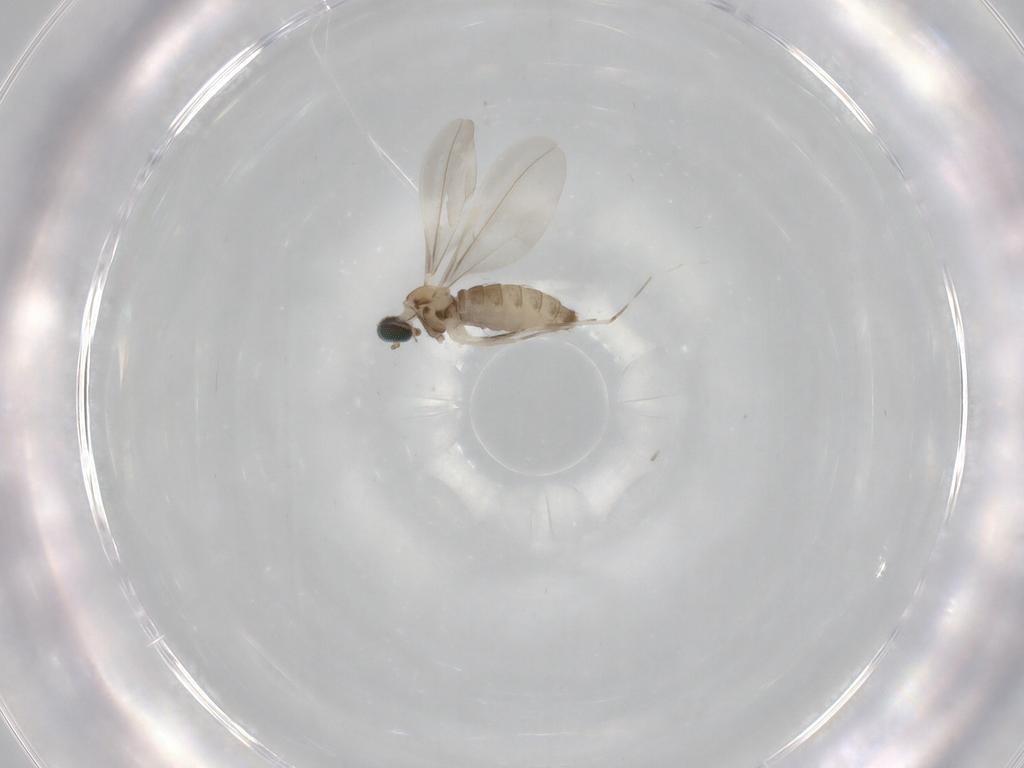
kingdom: Animalia
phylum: Arthropoda
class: Insecta
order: Diptera
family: Cecidomyiidae
